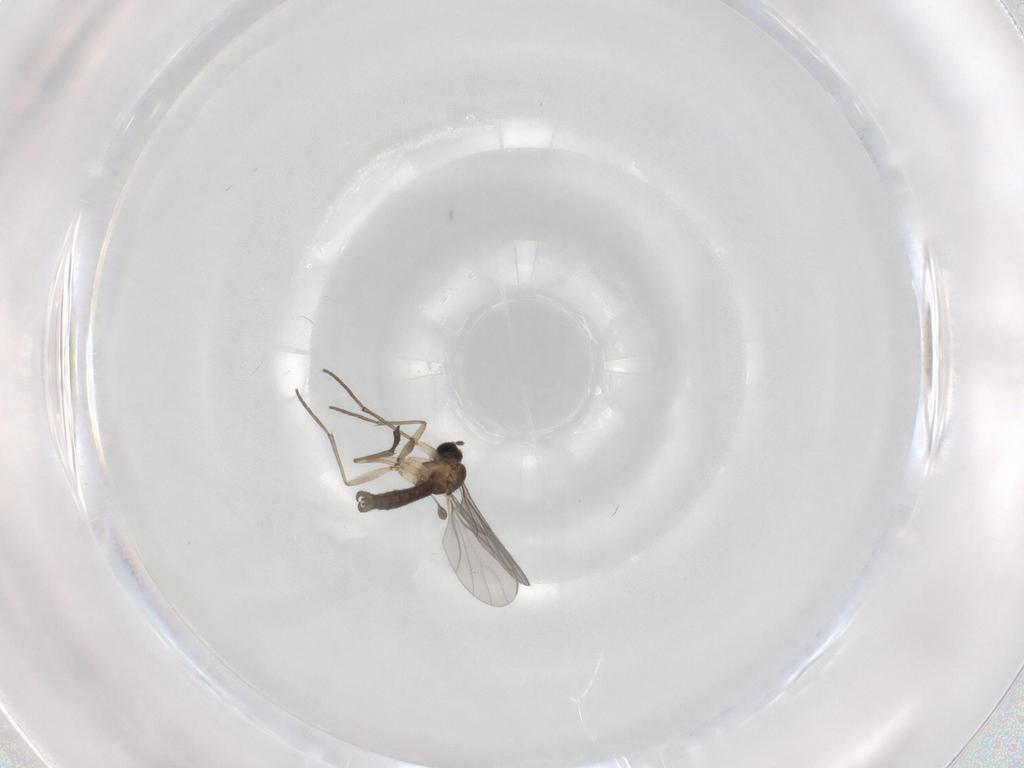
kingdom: Animalia
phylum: Arthropoda
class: Insecta
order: Diptera
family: Sciaridae
